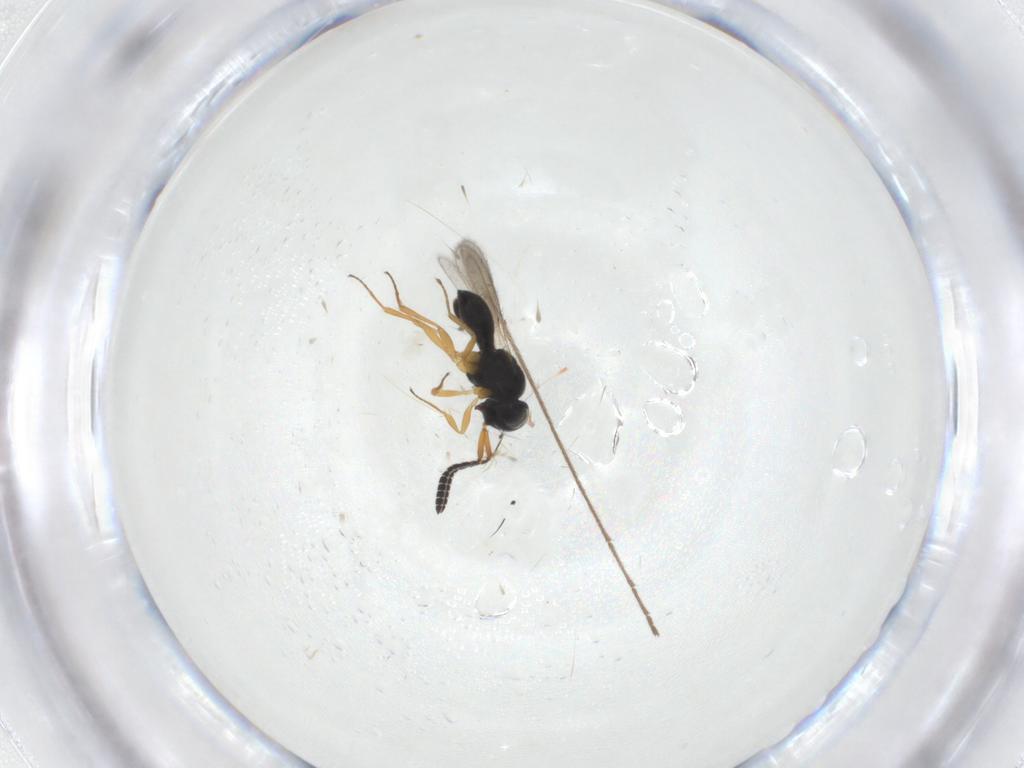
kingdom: Animalia
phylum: Arthropoda
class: Insecta
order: Hymenoptera
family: Scelionidae
